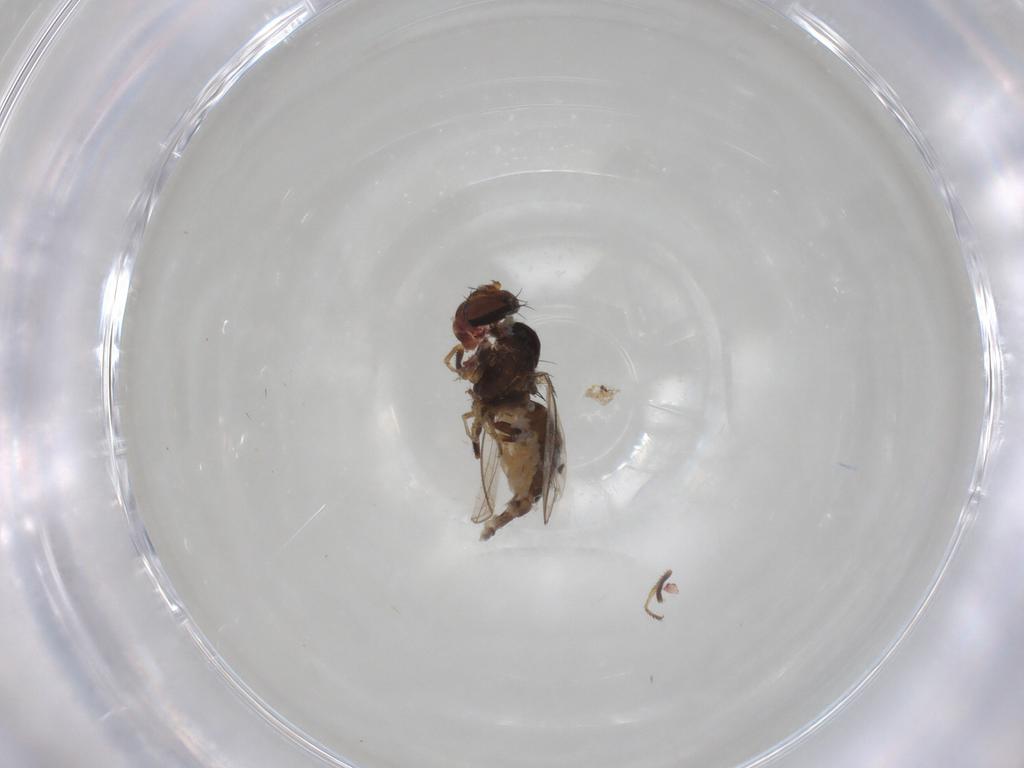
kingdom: Animalia
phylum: Arthropoda
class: Insecta
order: Diptera
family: Ephydridae
